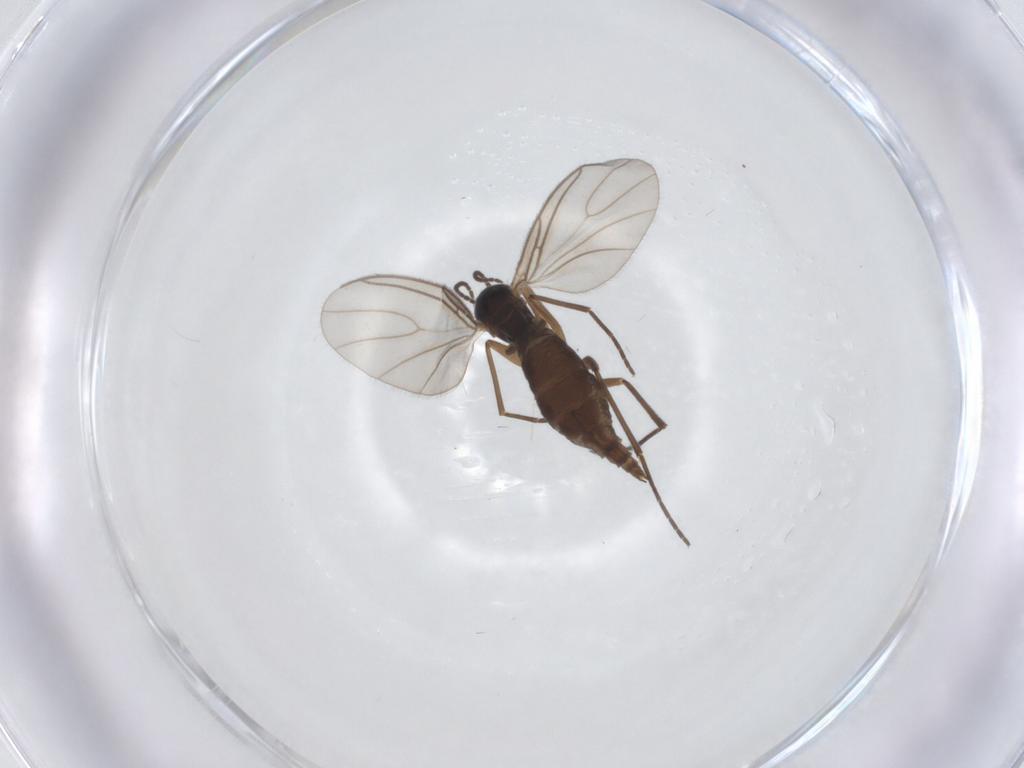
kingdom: Animalia
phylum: Arthropoda
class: Insecta
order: Diptera
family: Sciaridae
